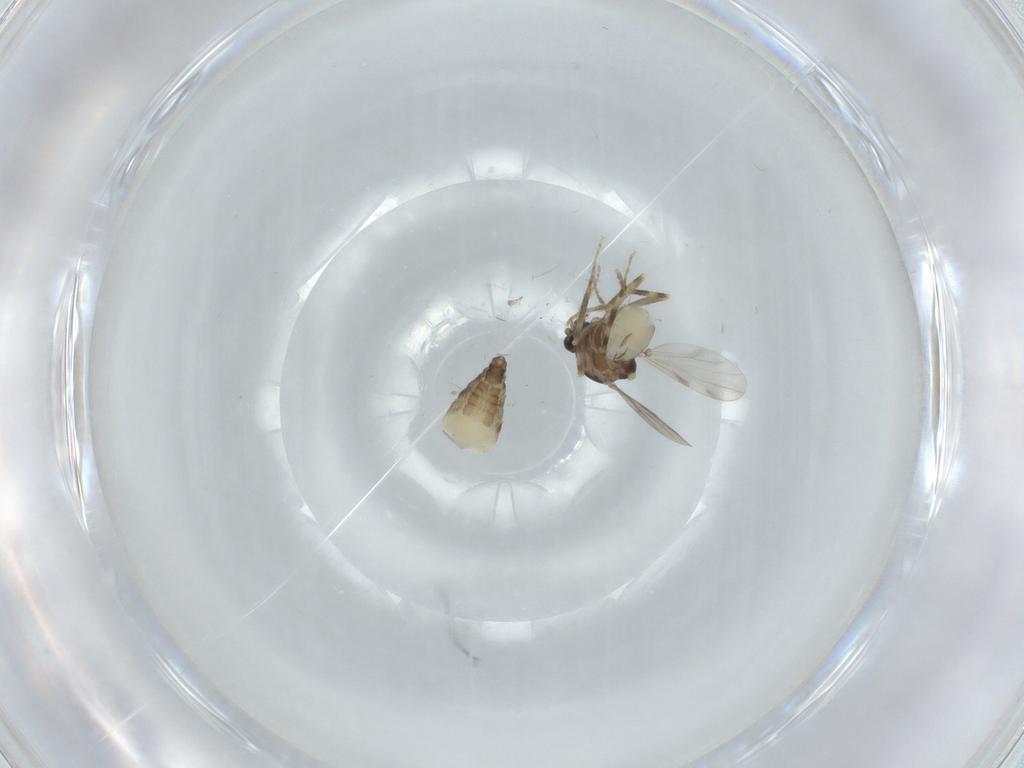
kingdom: Animalia
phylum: Arthropoda
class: Insecta
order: Diptera
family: Ceratopogonidae
